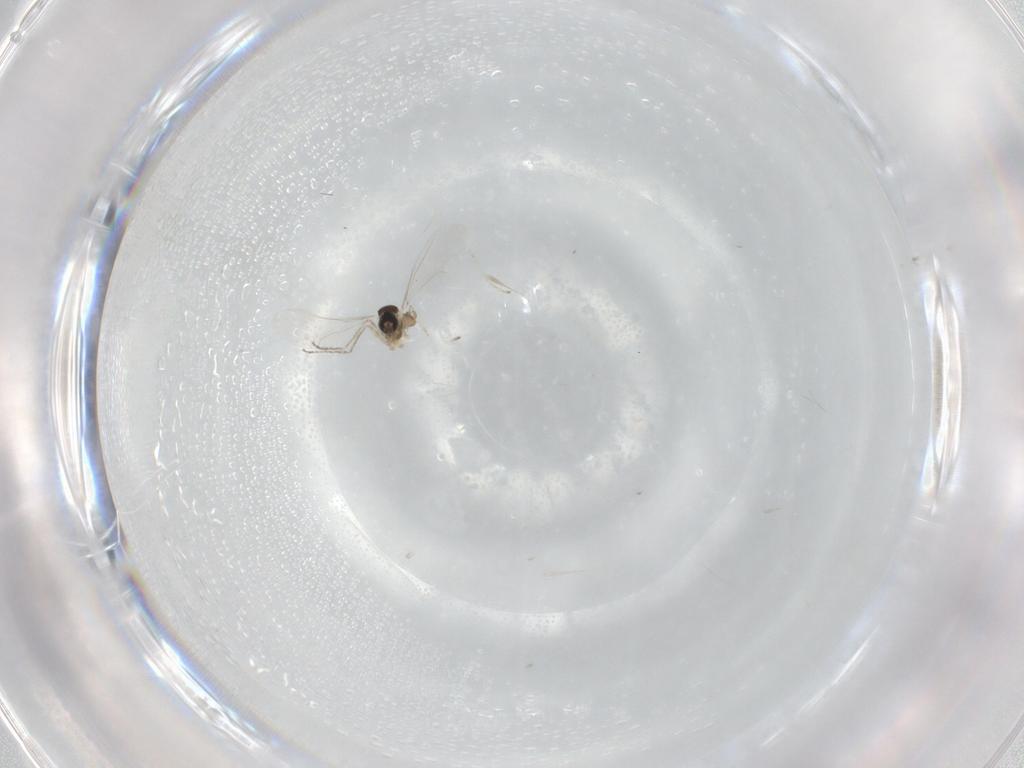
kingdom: Animalia
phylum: Arthropoda
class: Insecta
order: Diptera
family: Cecidomyiidae
